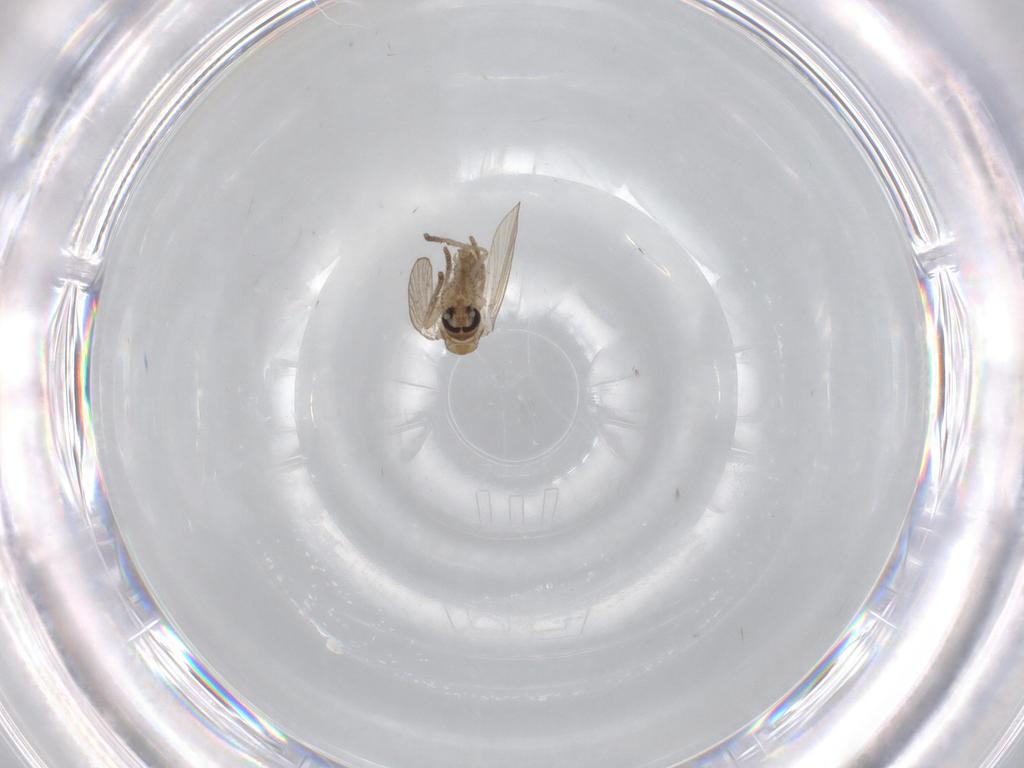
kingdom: Animalia
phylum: Arthropoda
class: Insecta
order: Diptera
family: Psychodidae
